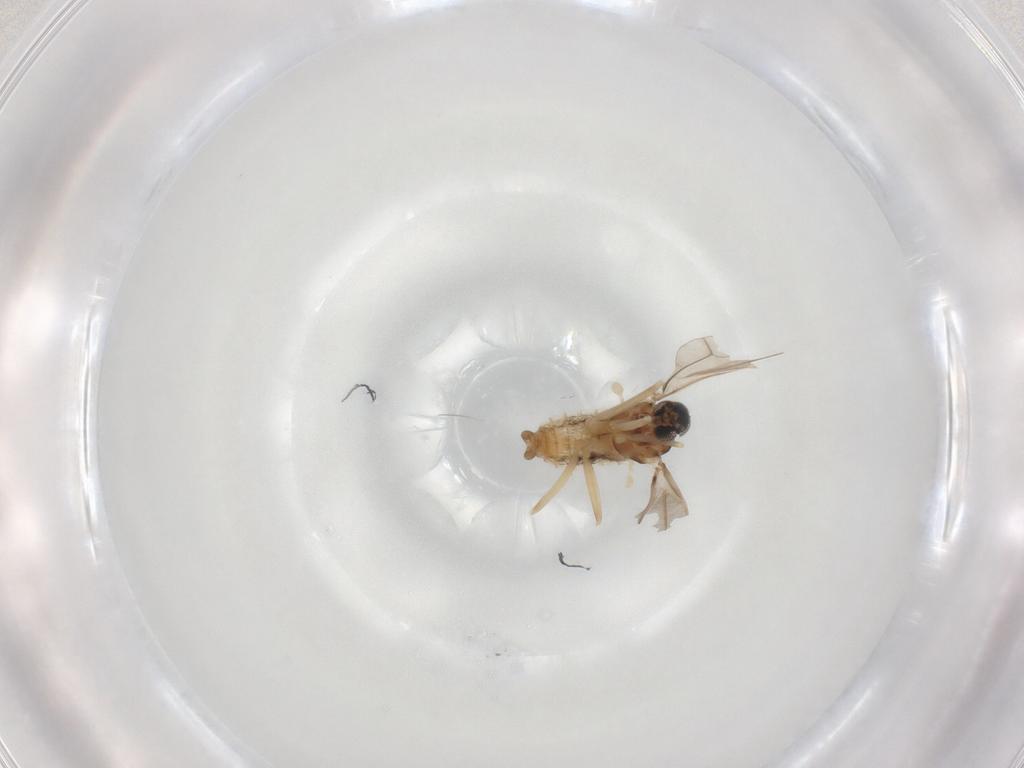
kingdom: Animalia
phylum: Arthropoda
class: Insecta
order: Diptera
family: Cecidomyiidae
